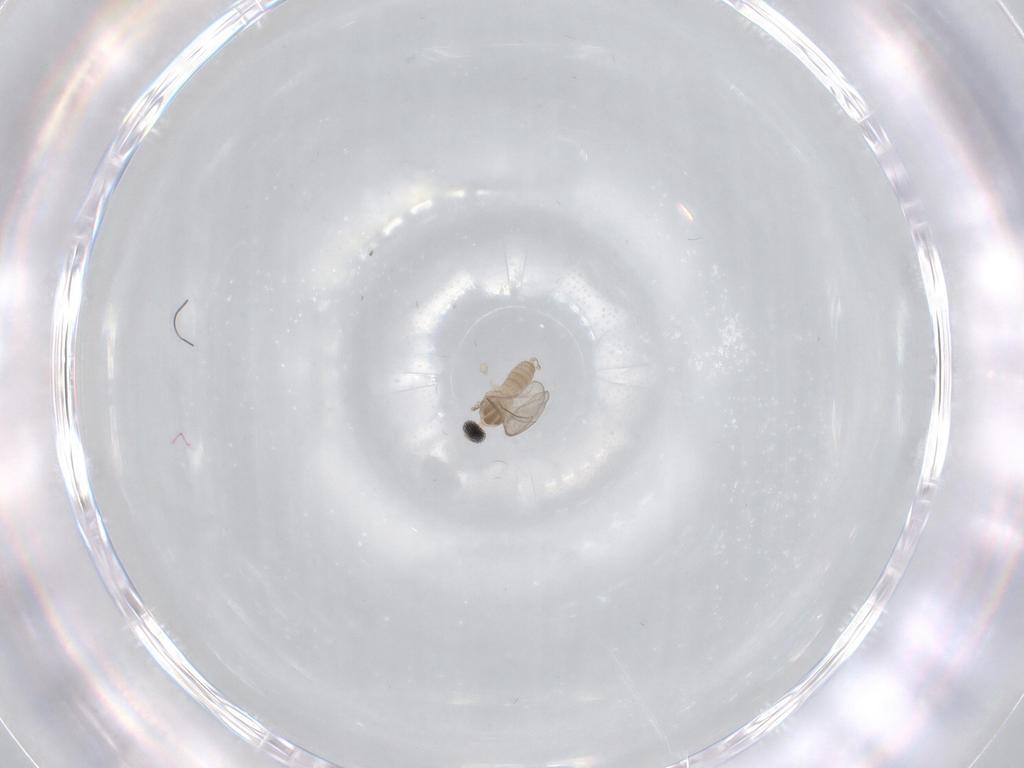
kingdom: Animalia
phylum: Arthropoda
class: Insecta
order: Diptera
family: Cecidomyiidae
